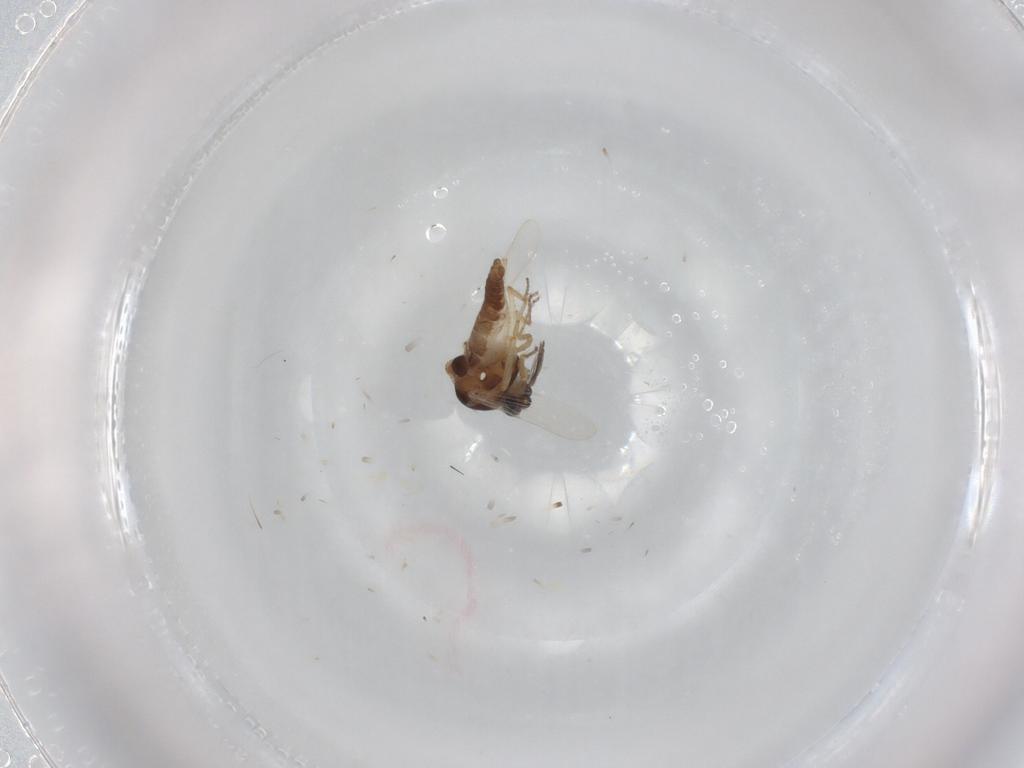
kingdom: Animalia
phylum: Arthropoda
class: Insecta
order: Diptera
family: Ceratopogonidae
